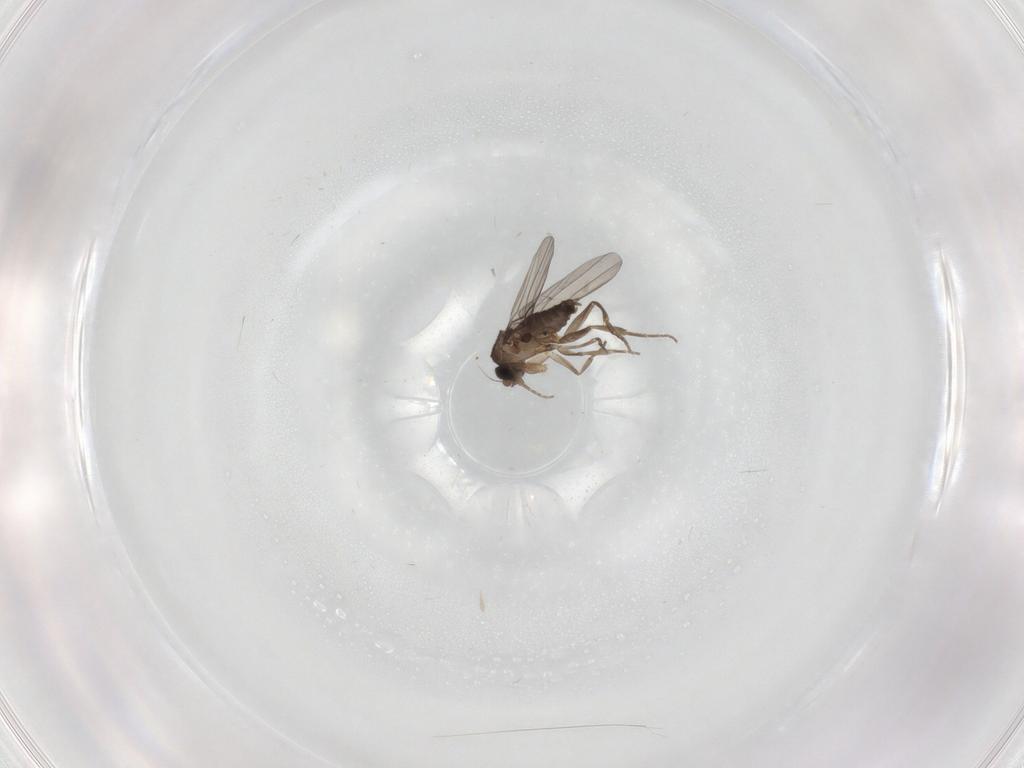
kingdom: Animalia
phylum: Arthropoda
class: Insecta
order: Diptera
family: Phoridae
